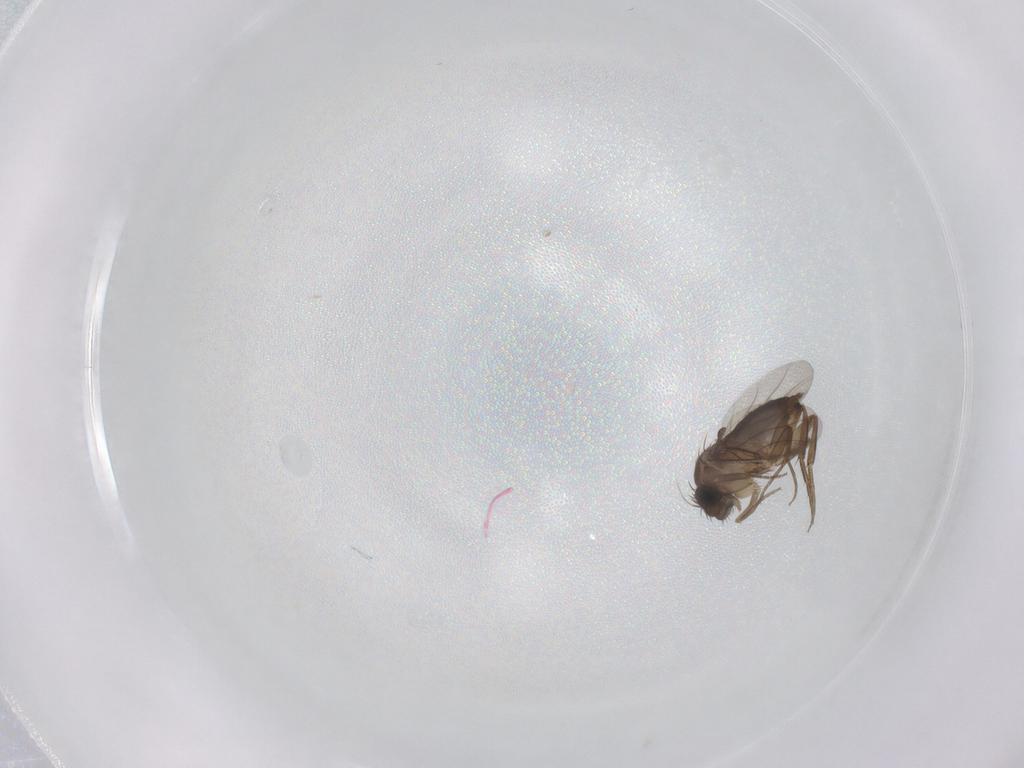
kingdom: Animalia
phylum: Arthropoda
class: Insecta
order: Diptera
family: Phoridae
